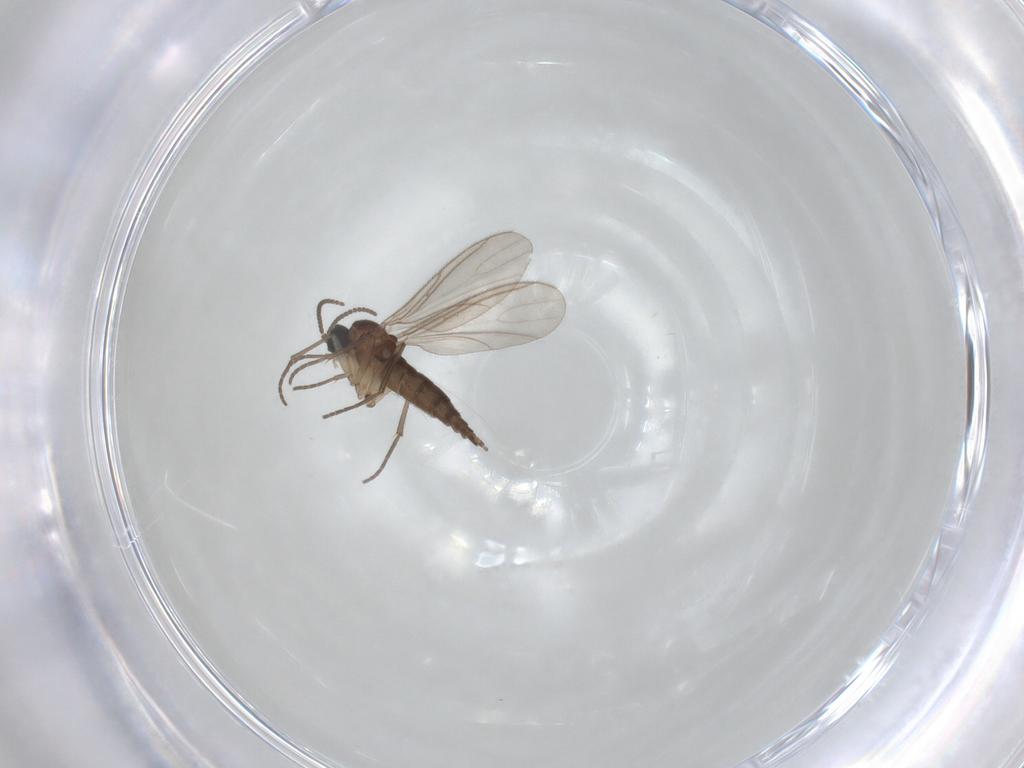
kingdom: Animalia
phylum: Arthropoda
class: Insecta
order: Diptera
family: Sciaridae
